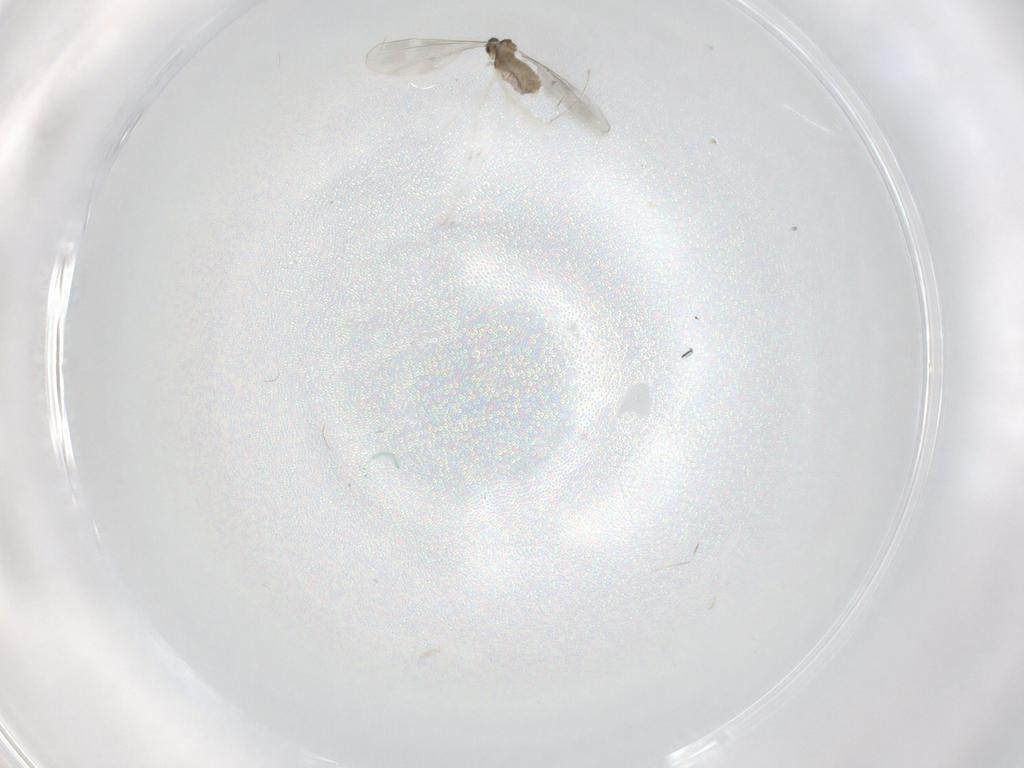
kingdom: Animalia
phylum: Arthropoda
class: Insecta
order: Diptera
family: Cecidomyiidae
